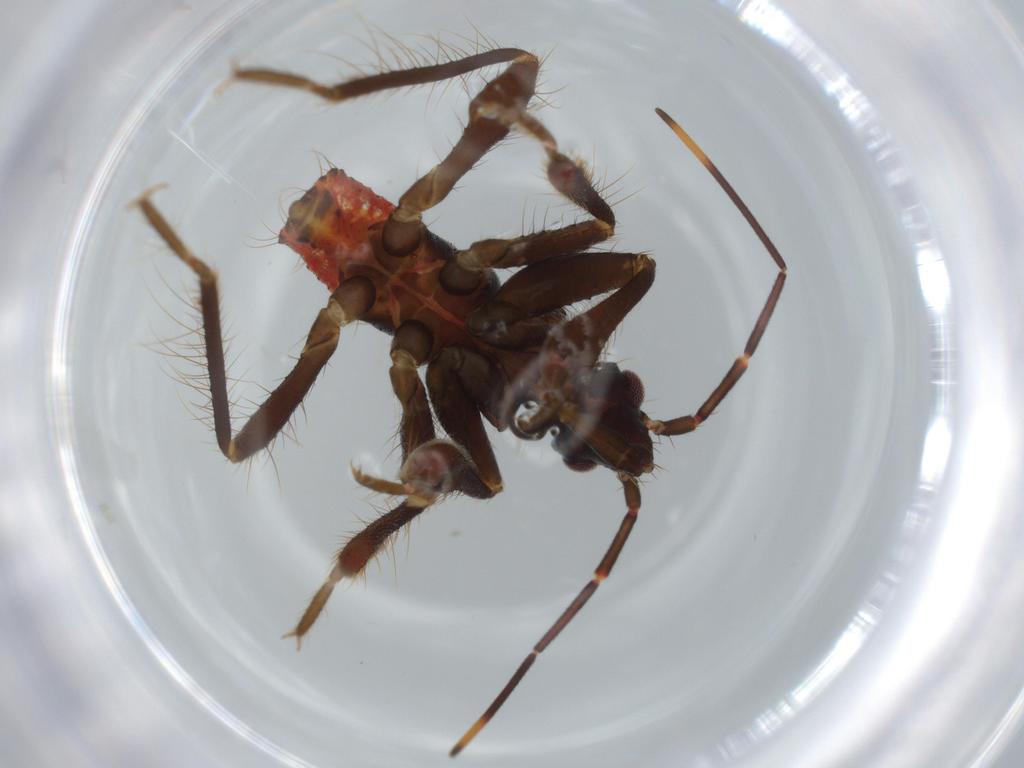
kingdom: Animalia
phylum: Arthropoda
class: Insecta
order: Hemiptera
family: Reduviidae
